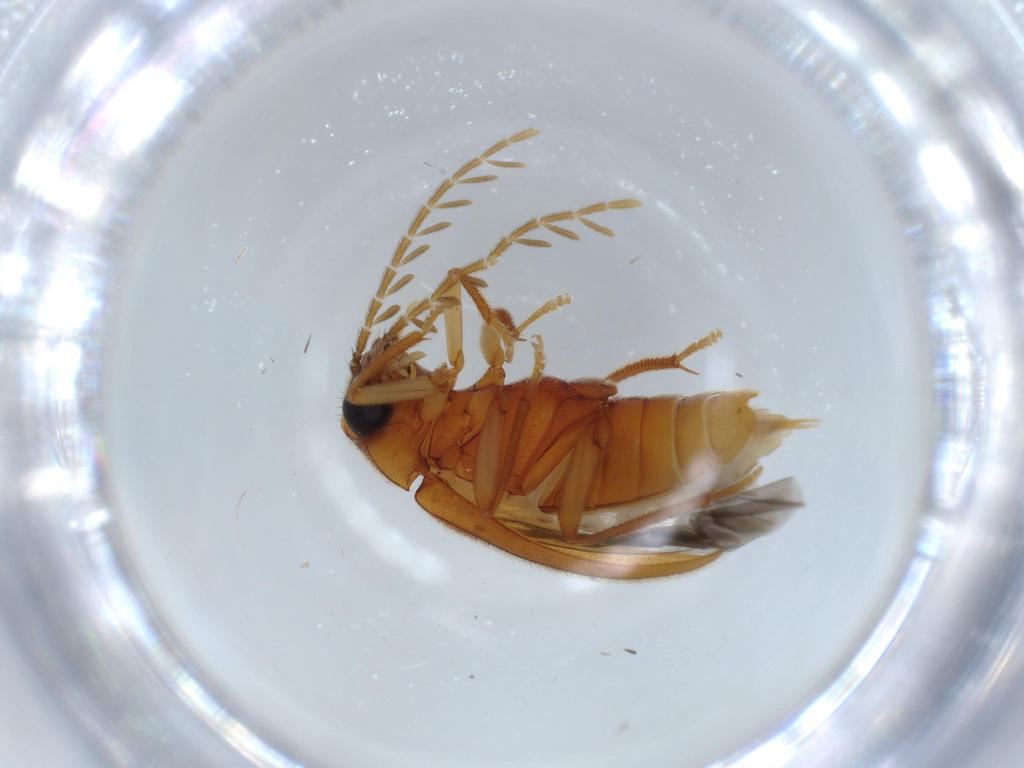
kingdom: Animalia
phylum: Arthropoda
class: Insecta
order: Coleoptera
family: Ptilodactylidae
